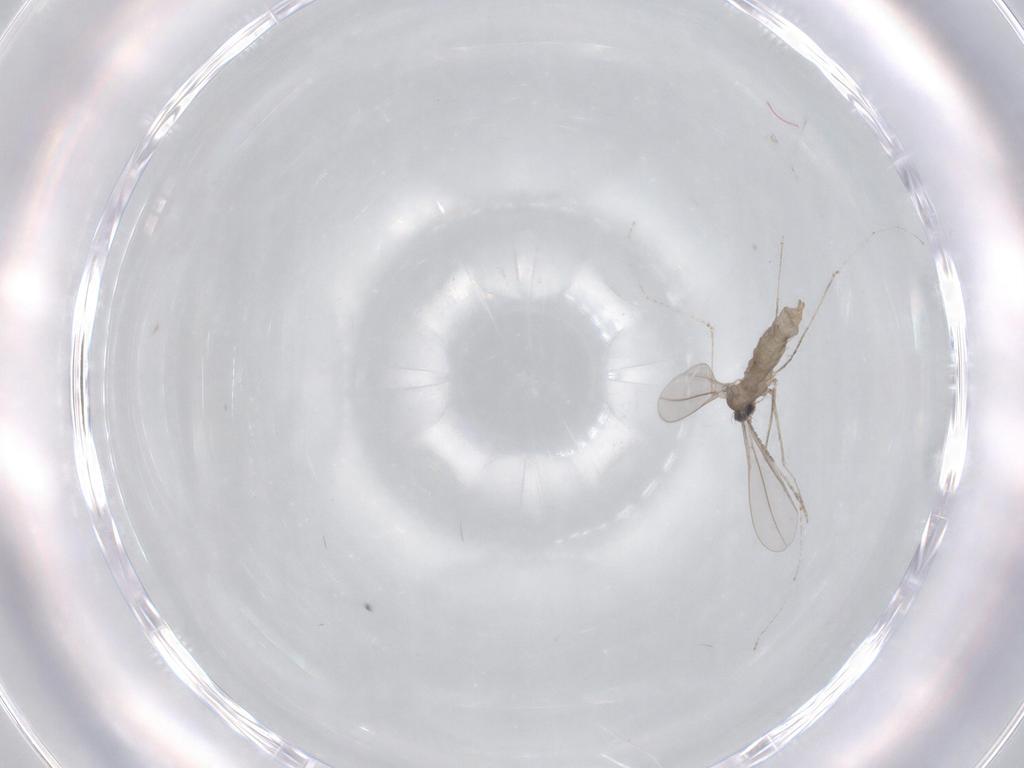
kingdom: Animalia
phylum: Arthropoda
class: Insecta
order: Diptera
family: Cecidomyiidae
